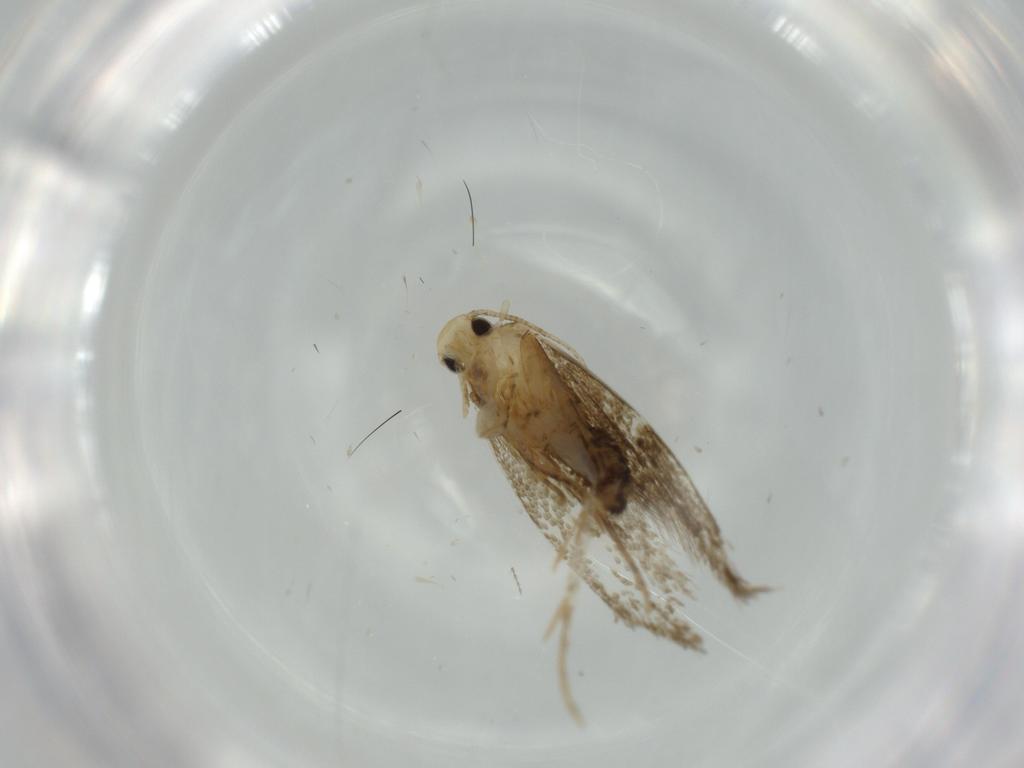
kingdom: Animalia
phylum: Arthropoda
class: Insecta
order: Lepidoptera
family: Tineidae
